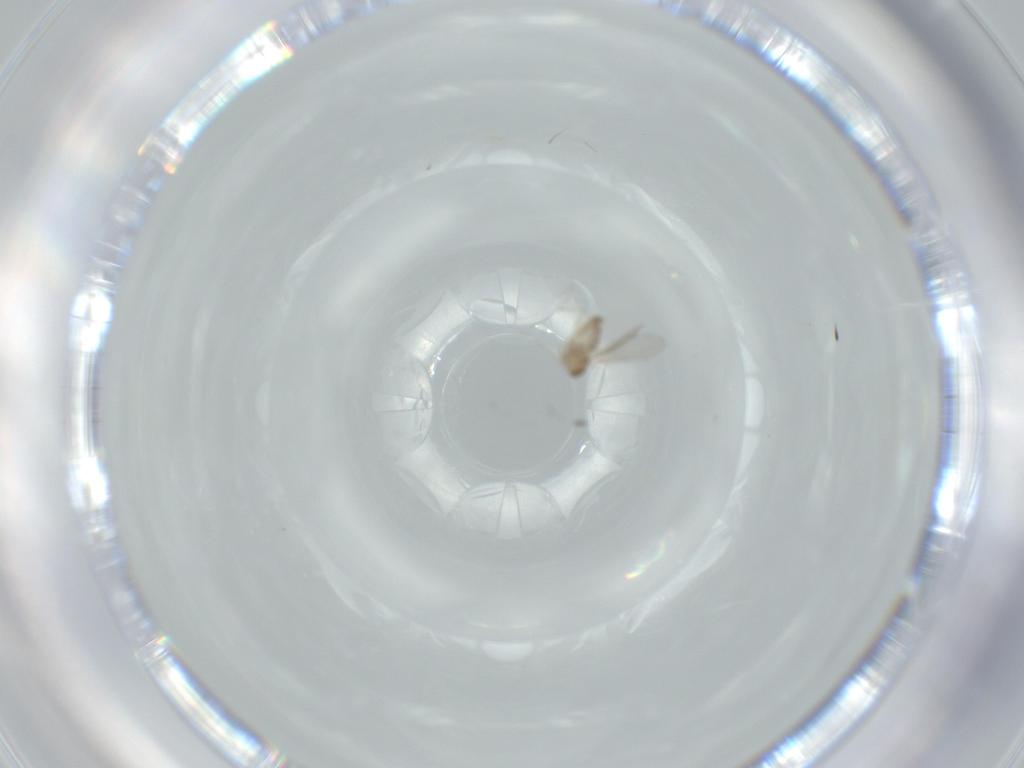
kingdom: Animalia
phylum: Arthropoda
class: Insecta
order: Diptera
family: Cecidomyiidae
